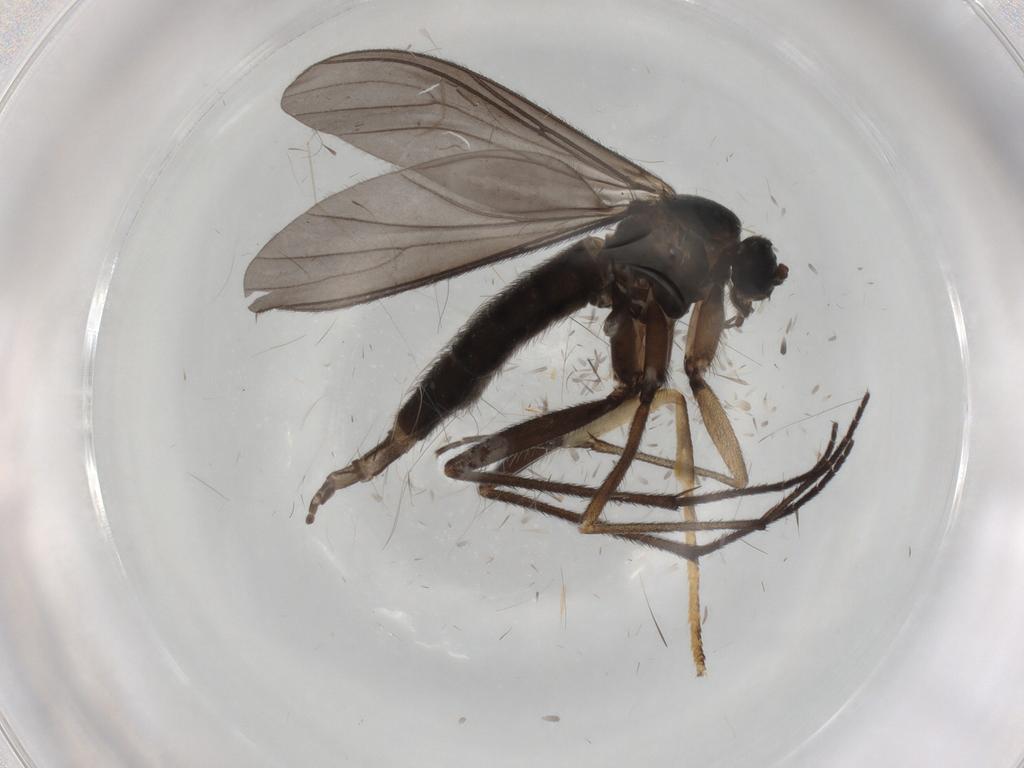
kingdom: Animalia
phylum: Arthropoda
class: Insecta
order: Diptera
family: Sciaridae
